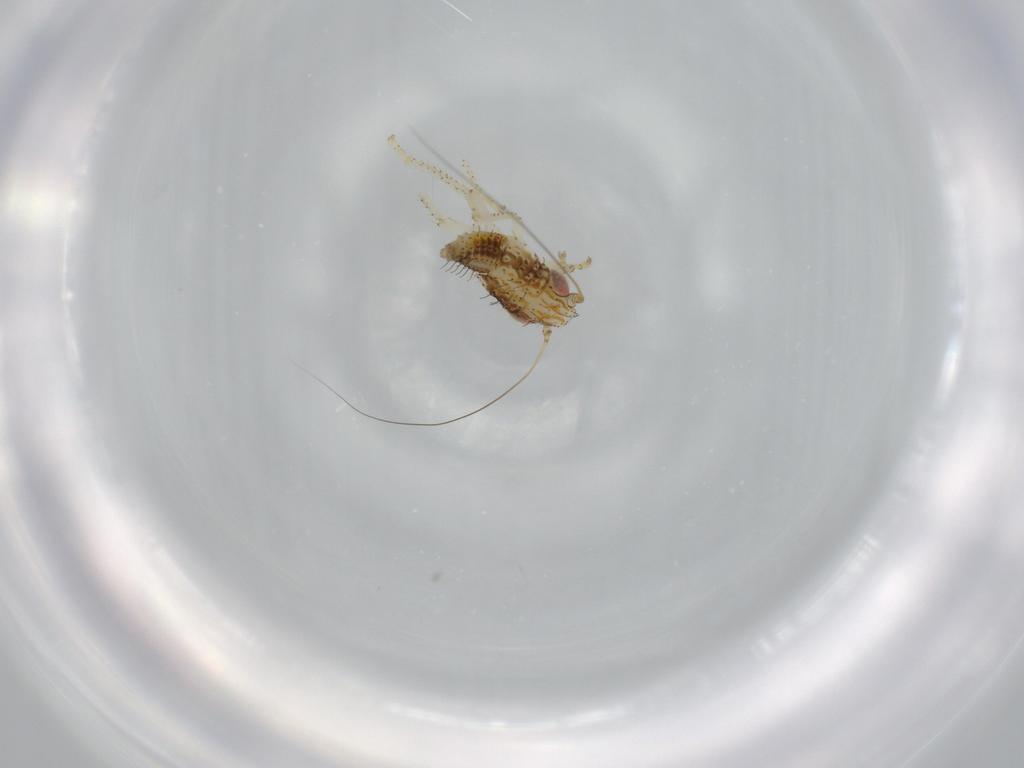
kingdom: Animalia
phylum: Arthropoda
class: Insecta
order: Hemiptera
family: Cicadellidae
